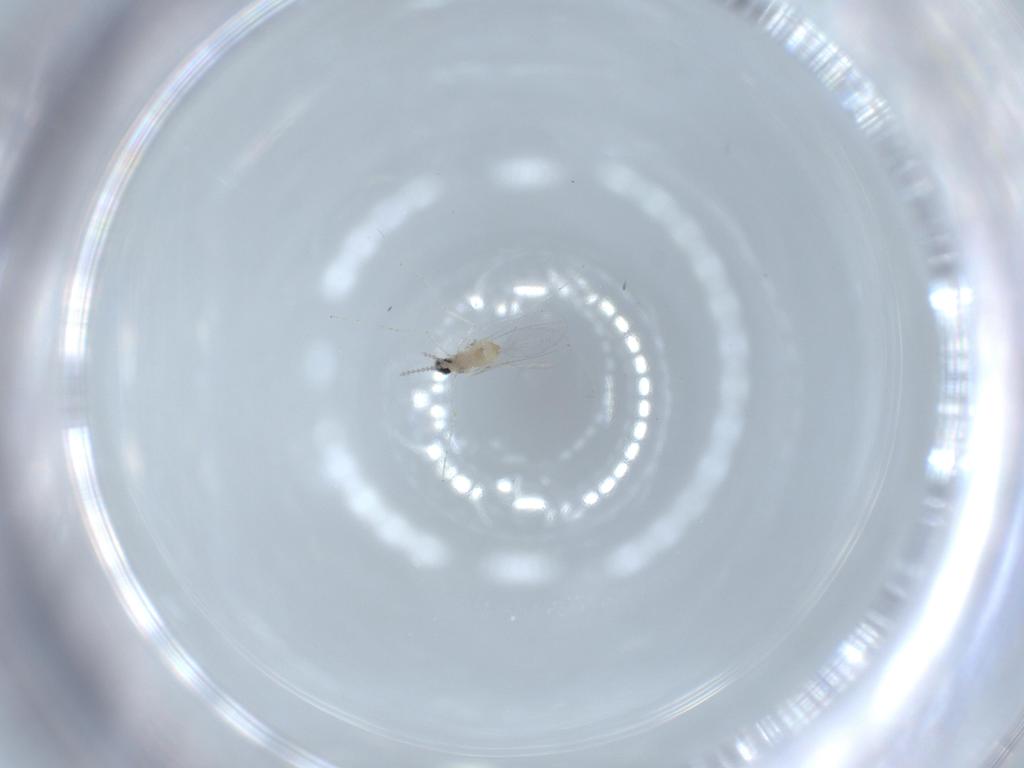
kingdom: Animalia
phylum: Arthropoda
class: Insecta
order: Diptera
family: Cecidomyiidae
